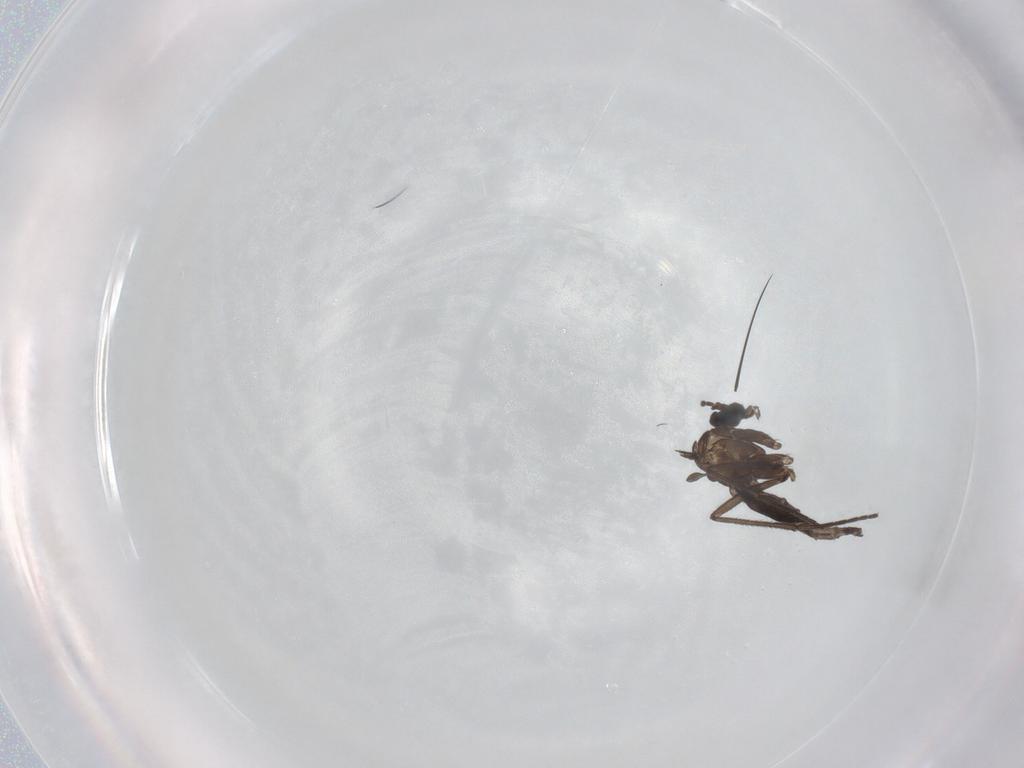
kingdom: Animalia
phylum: Arthropoda
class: Insecta
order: Diptera
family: Sciaridae
